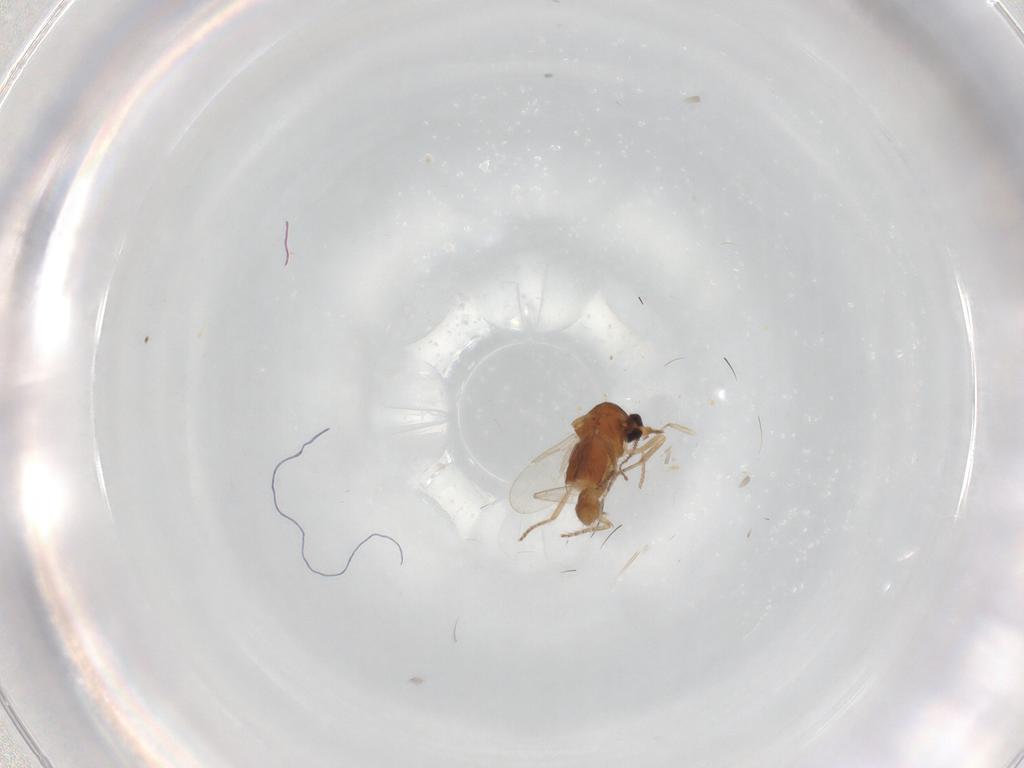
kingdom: Animalia
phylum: Arthropoda
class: Insecta
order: Diptera
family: Ceratopogonidae
